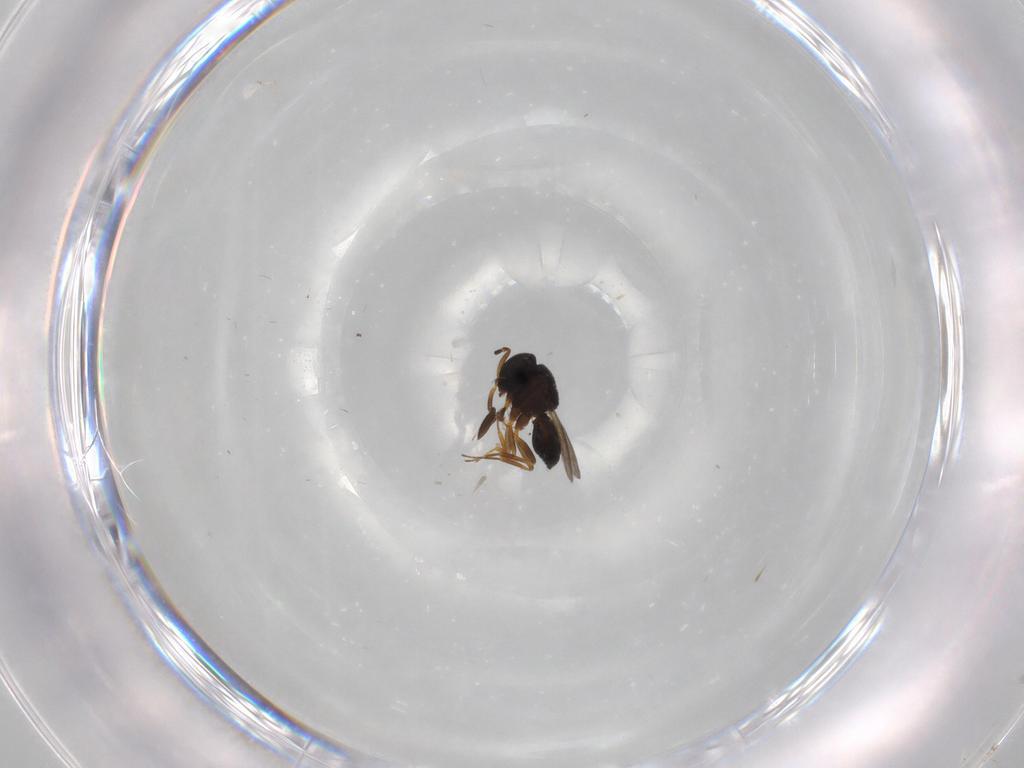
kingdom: Animalia
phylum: Arthropoda
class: Insecta
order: Hymenoptera
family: Scelionidae
